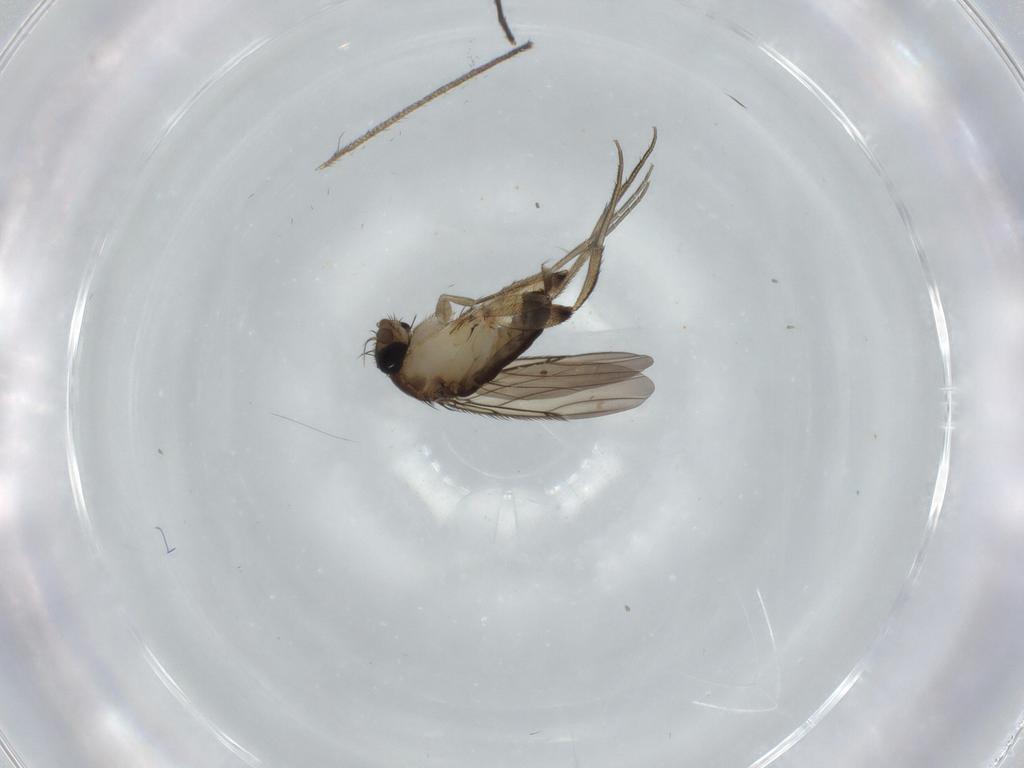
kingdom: Animalia
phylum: Arthropoda
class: Insecta
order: Diptera
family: Phoridae
